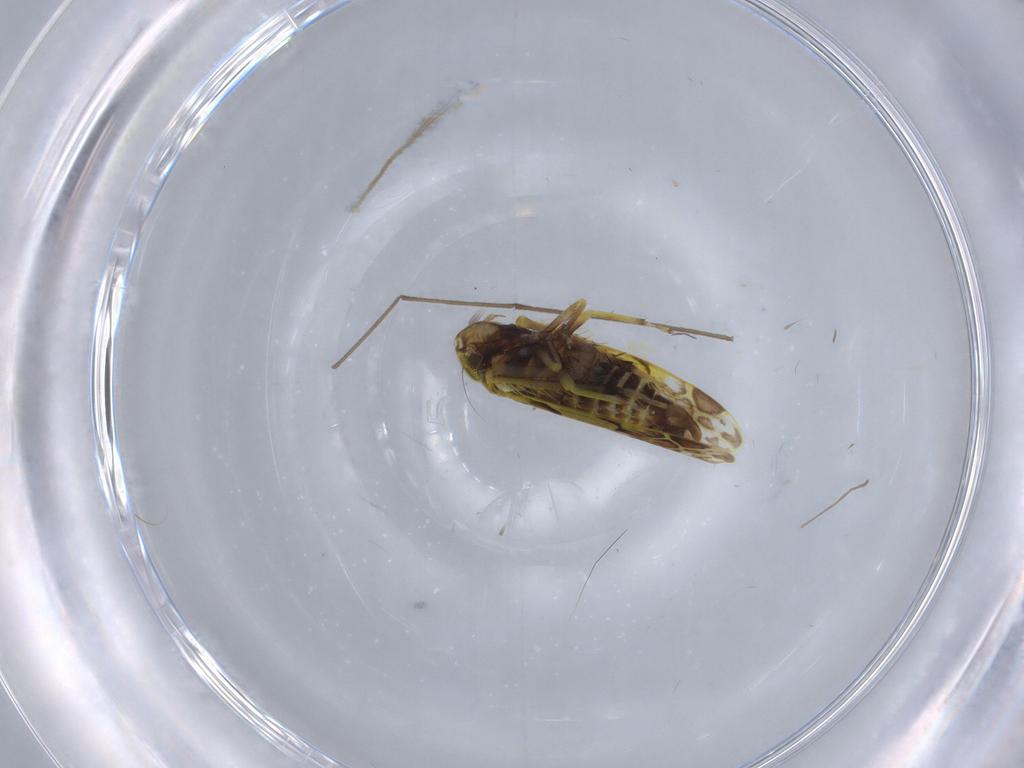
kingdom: Animalia
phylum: Arthropoda
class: Insecta
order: Hemiptera
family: Cicadellidae
